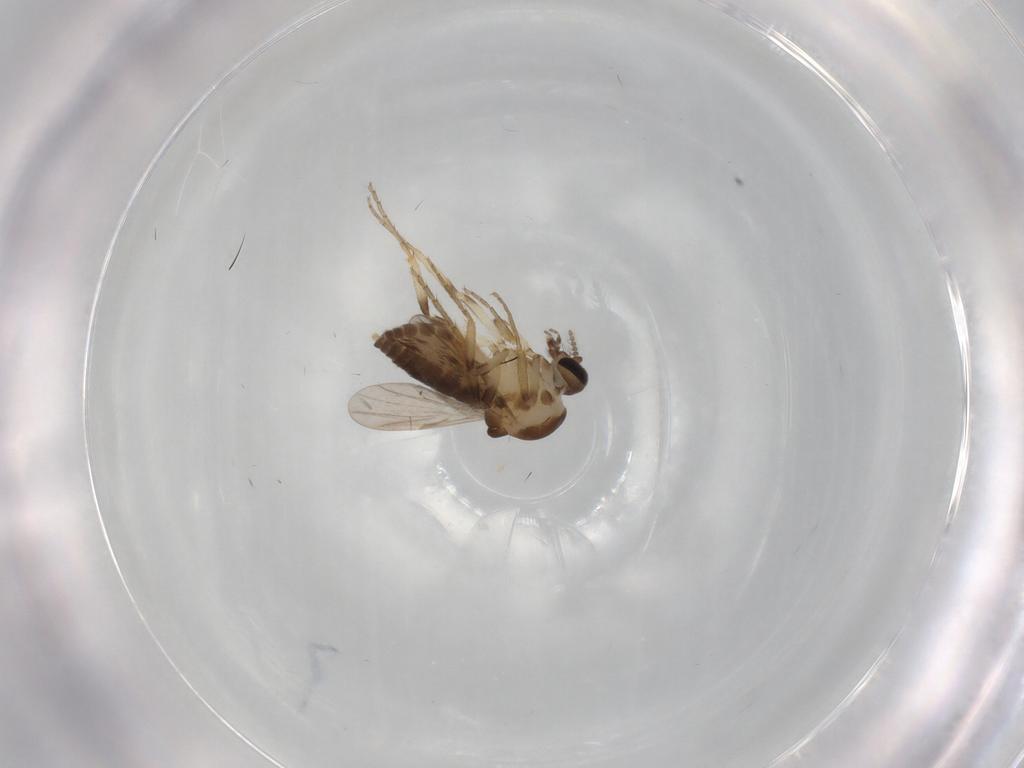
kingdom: Animalia
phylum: Arthropoda
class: Insecta
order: Diptera
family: Ceratopogonidae
